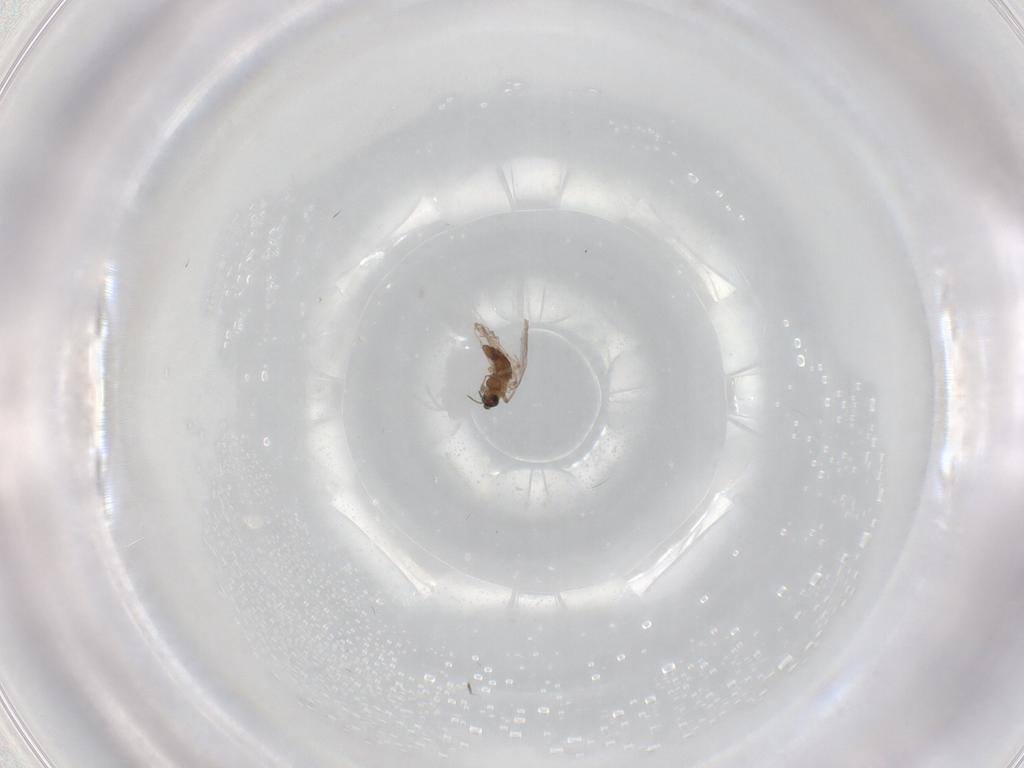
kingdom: Animalia
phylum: Arthropoda
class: Insecta
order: Diptera
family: Chironomidae
